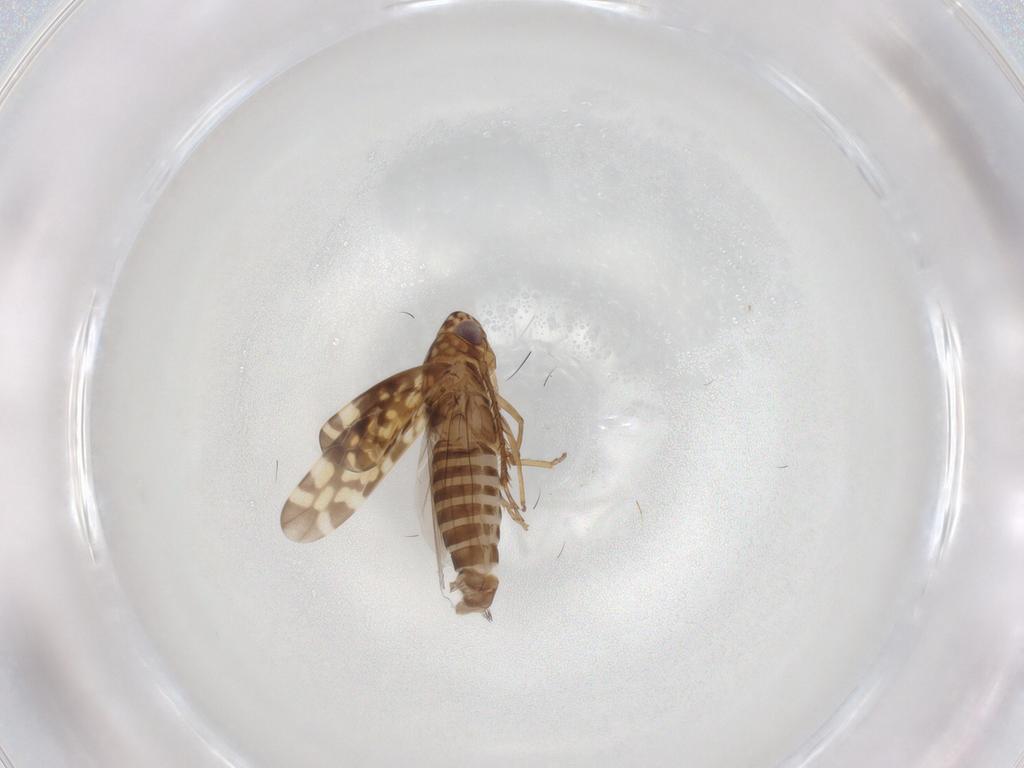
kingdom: Animalia
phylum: Arthropoda
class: Insecta
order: Hemiptera
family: Cicadellidae
